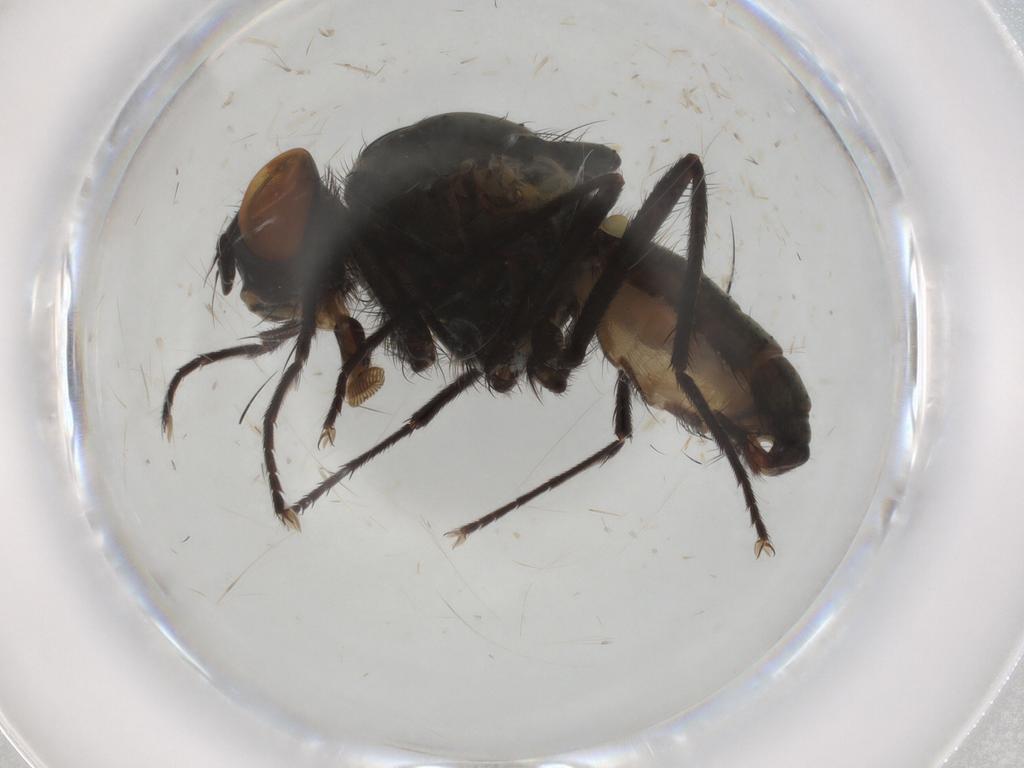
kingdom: Animalia
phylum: Arthropoda
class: Insecta
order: Diptera
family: Anthomyiidae
